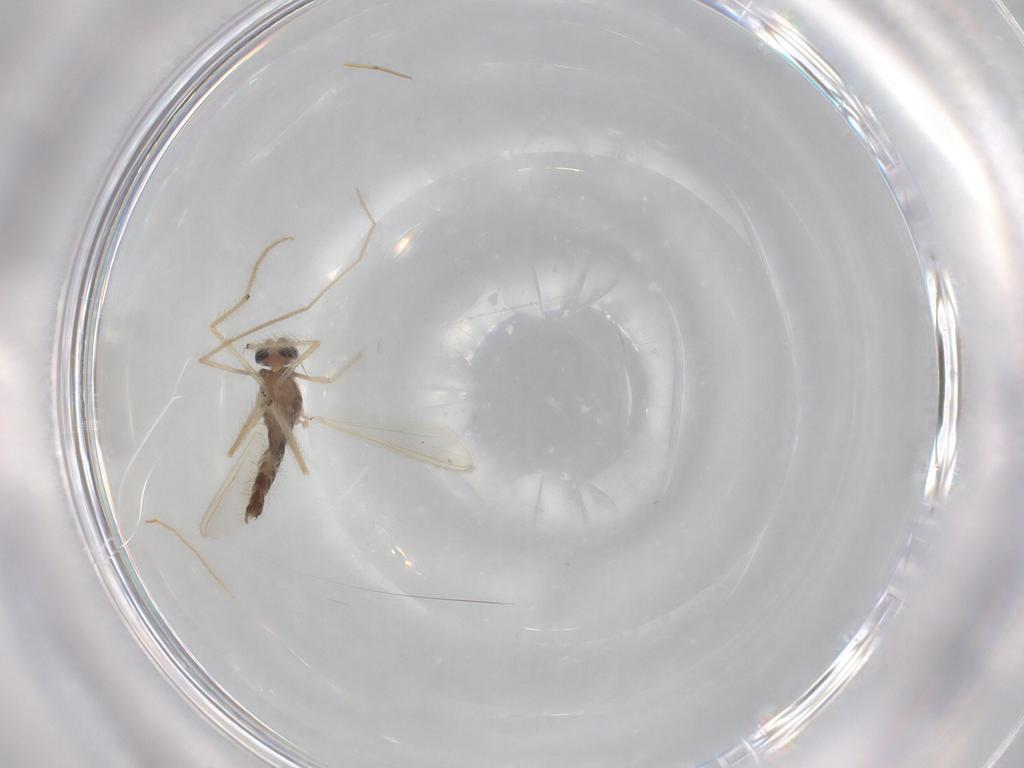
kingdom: Animalia
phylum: Arthropoda
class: Insecta
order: Diptera
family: Chironomidae
